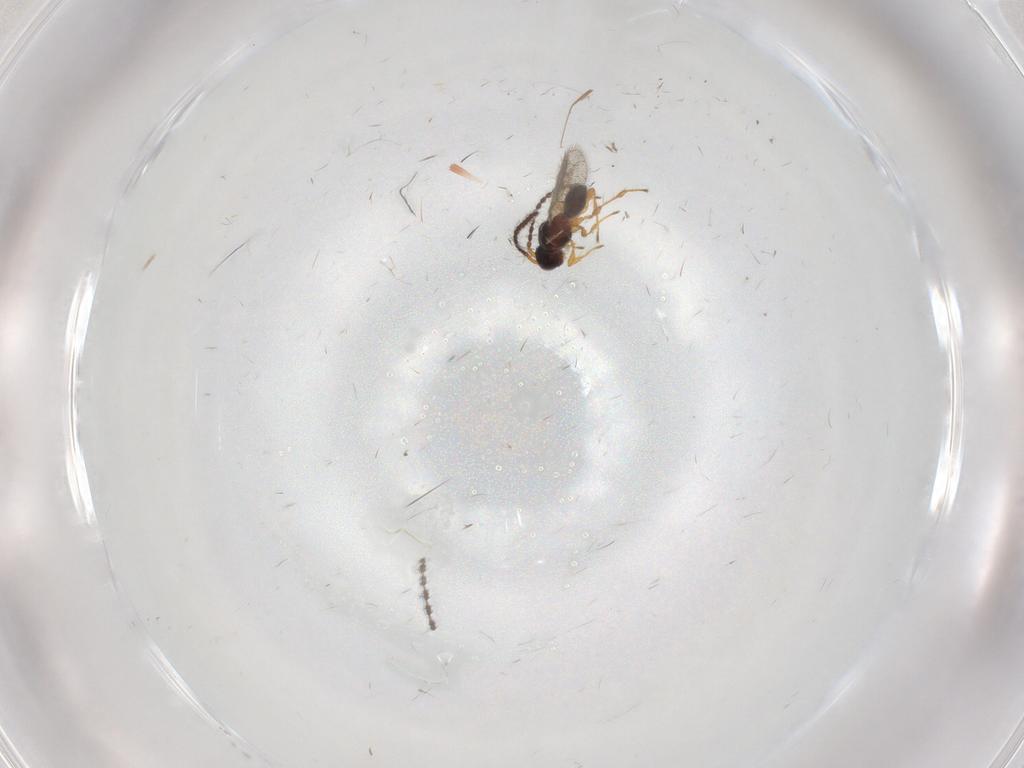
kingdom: Animalia
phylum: Arthropoda
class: Insecta
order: Hymenoptera
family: Diapriidae
